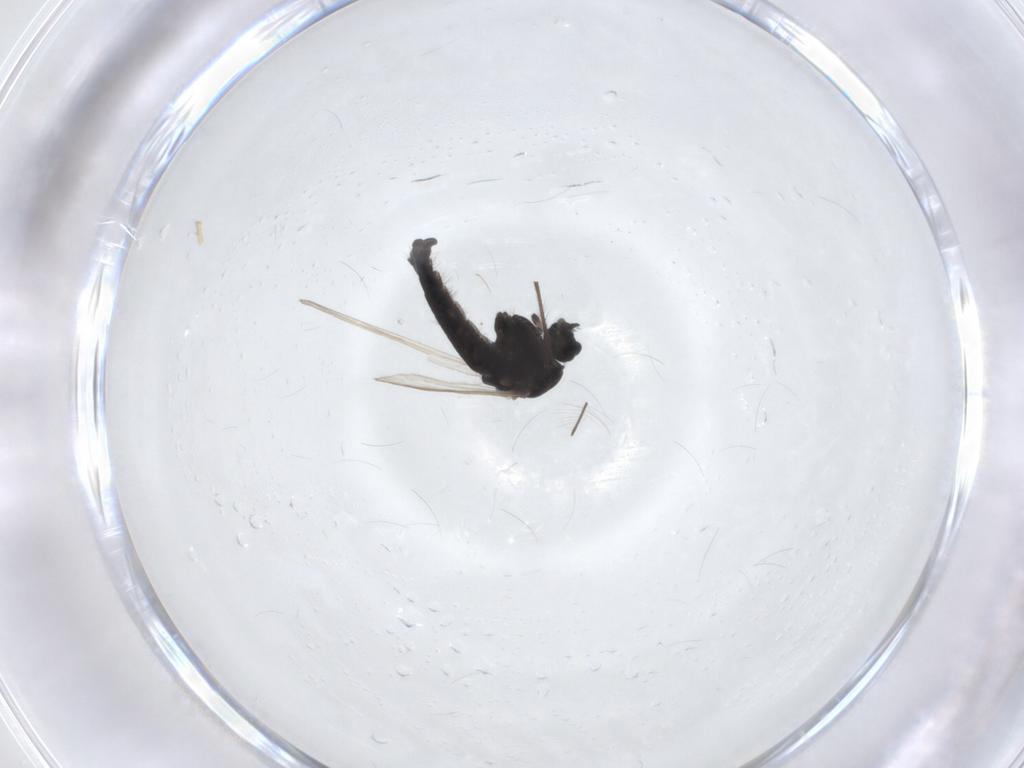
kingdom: Animalia
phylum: Arthropoda
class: Insecta
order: Diptera
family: Chironomidae
